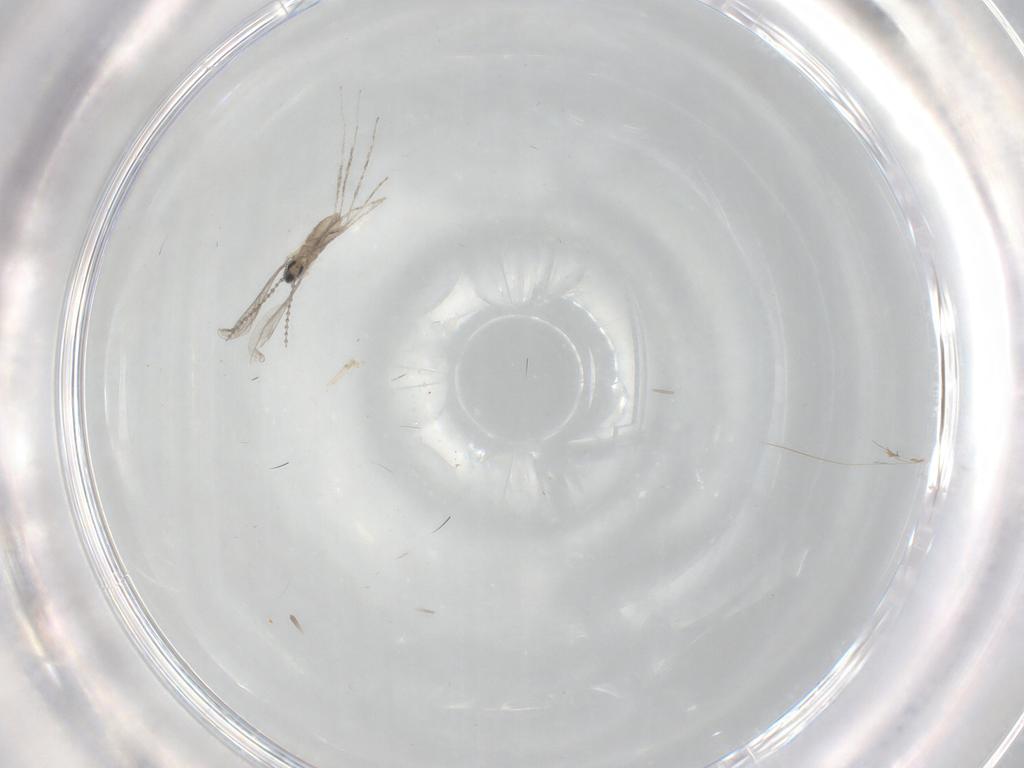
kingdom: Animalia
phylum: Arthropoda
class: Insecta
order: Diptera
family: Cecidomyiidae
